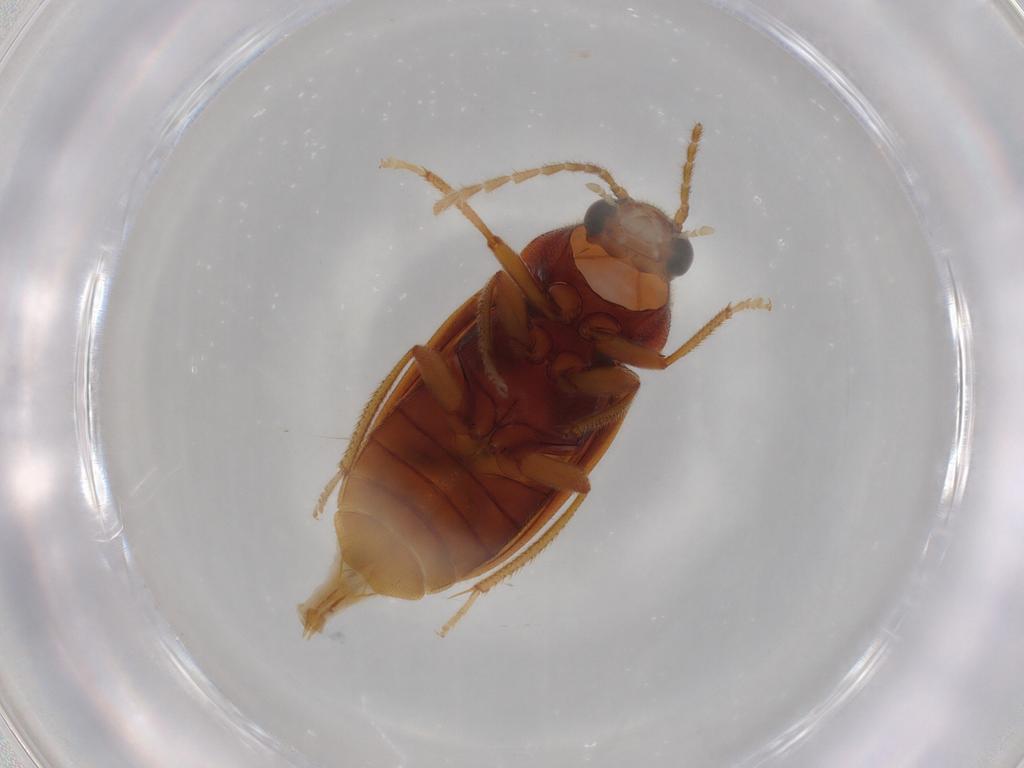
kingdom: Animalia
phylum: Arthropoda
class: Insecta
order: Coleoptera
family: Ptilodactylidae
